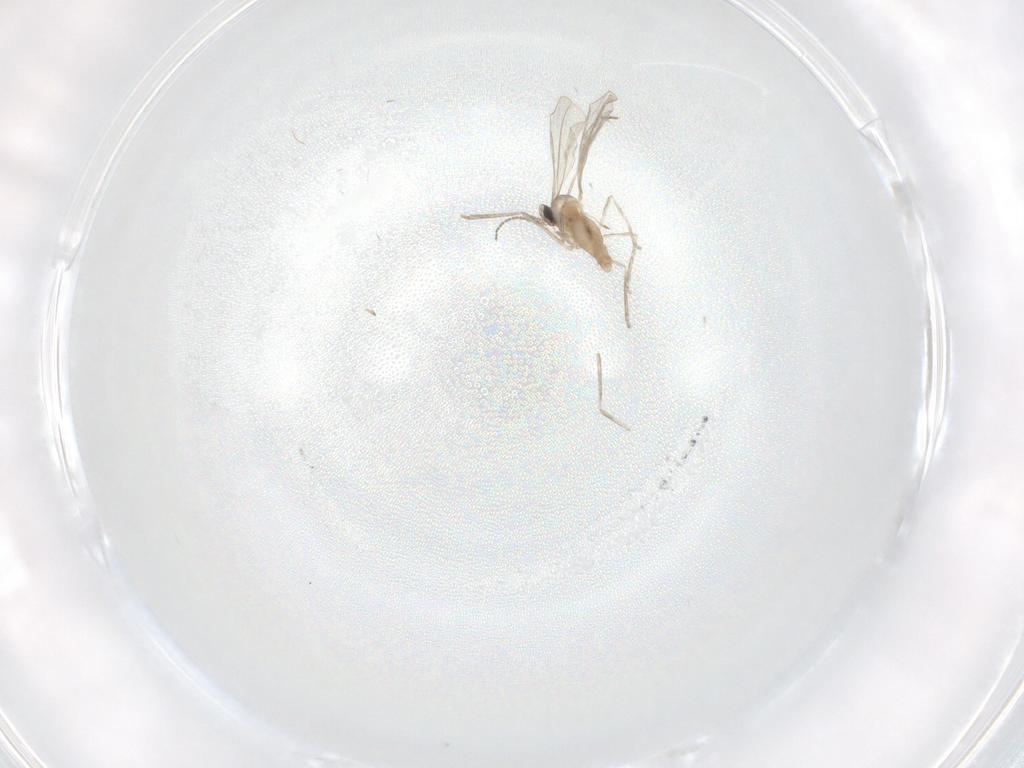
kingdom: Animalia
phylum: Arthropoda
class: Insecta
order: Diptera
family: Cecidomyiidae
